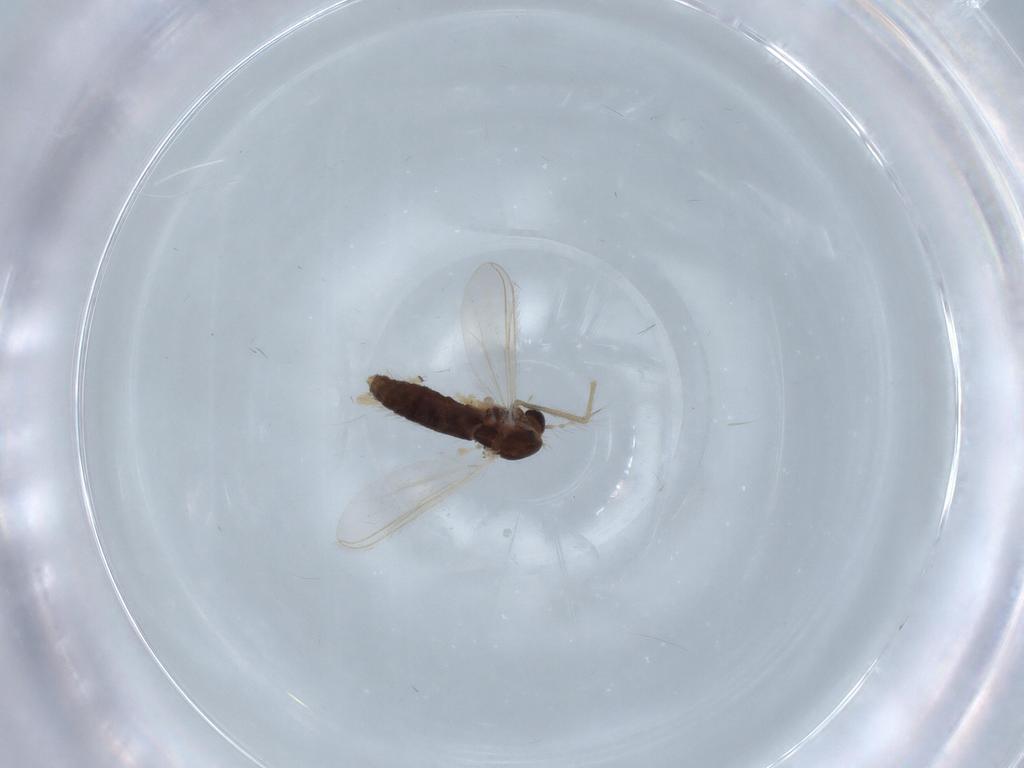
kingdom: Animalia
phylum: Arthropoda
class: Insecta
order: Diptera
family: Chironomidae
